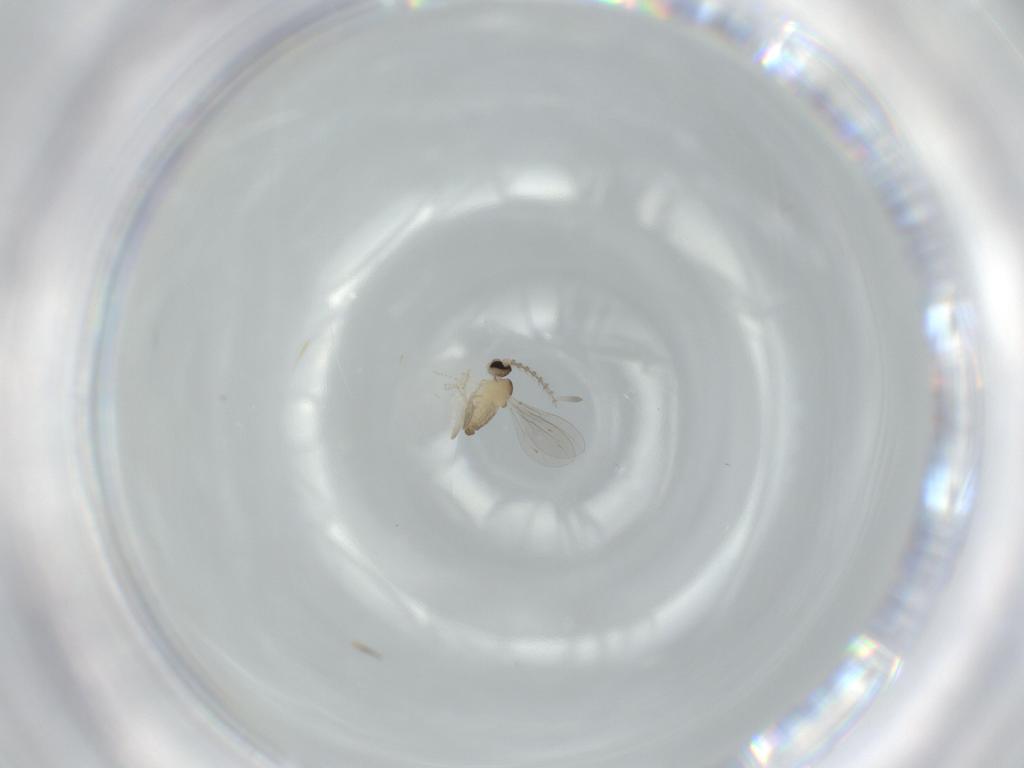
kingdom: Animalia
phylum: Arthropoda
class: Insecta
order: Diptera
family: Cecidomyiidae
